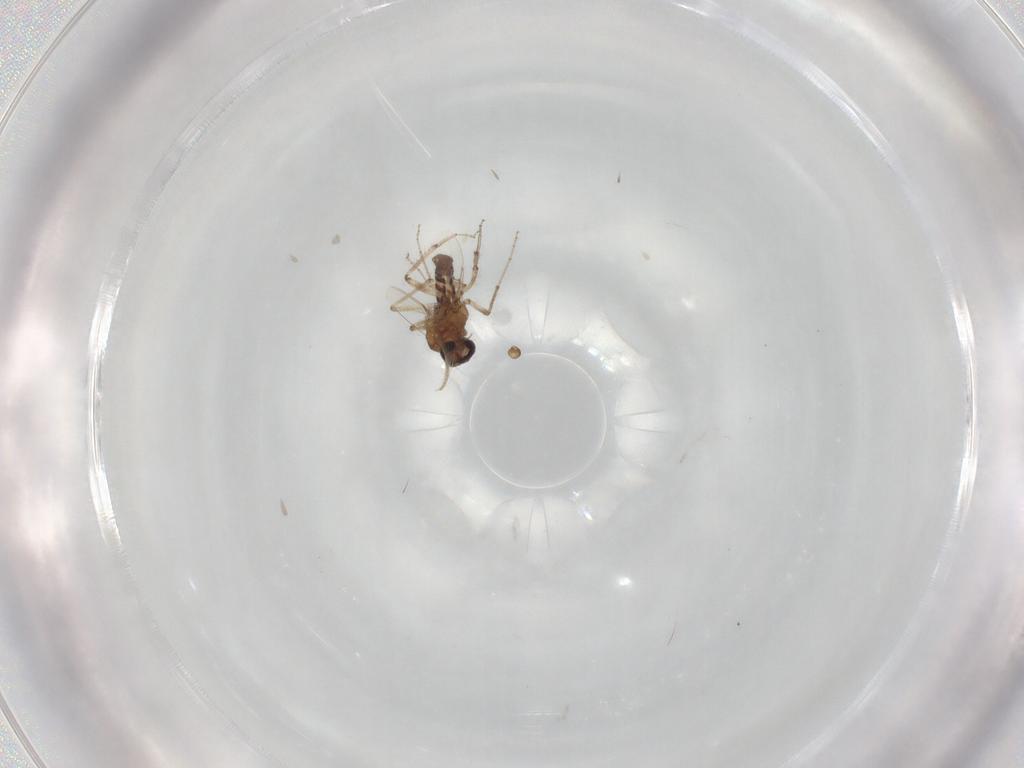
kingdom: Animalia
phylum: Arthropoda
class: Insecta
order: Diptera
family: Ceratopogonidae
